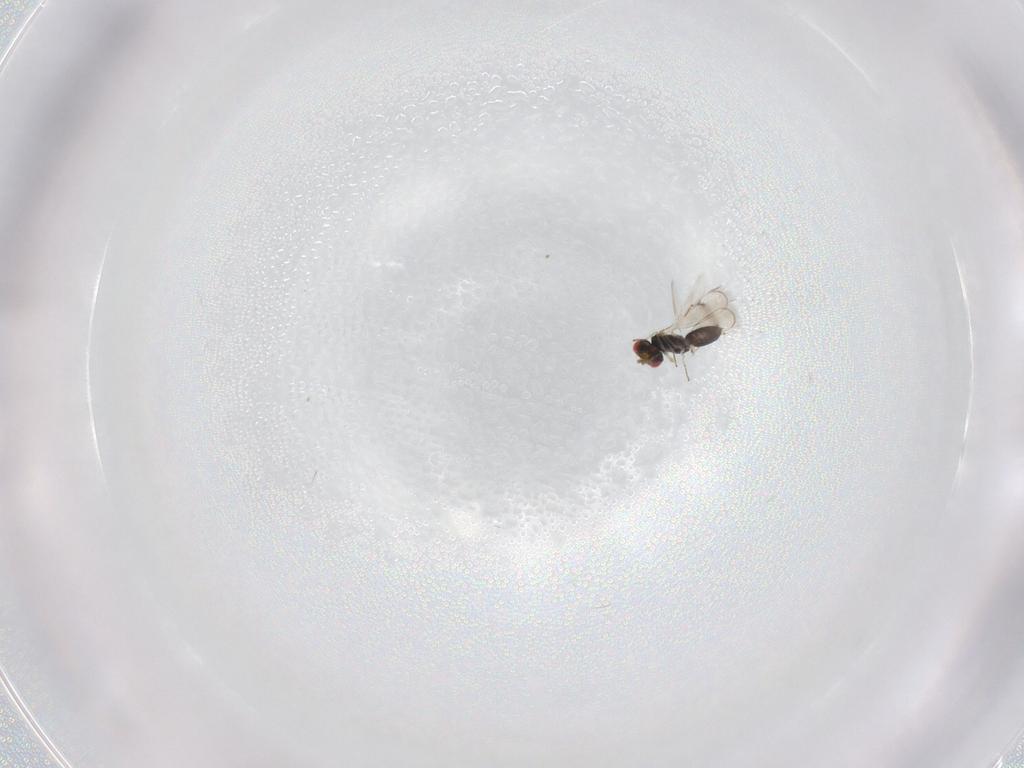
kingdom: Animalia
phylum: Arthropoda
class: Insecta
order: Hymenoptera
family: Eulophidae
